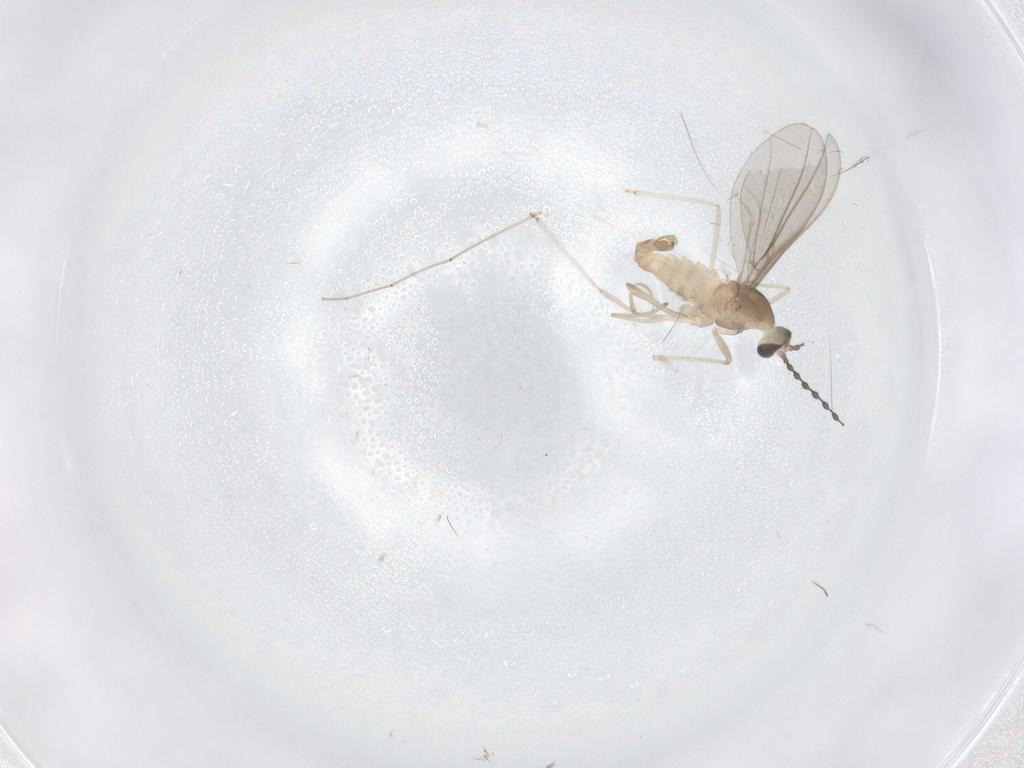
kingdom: Animalia
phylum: Arthropoda
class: Insecta
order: Diptera
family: Cecidomyiidae
